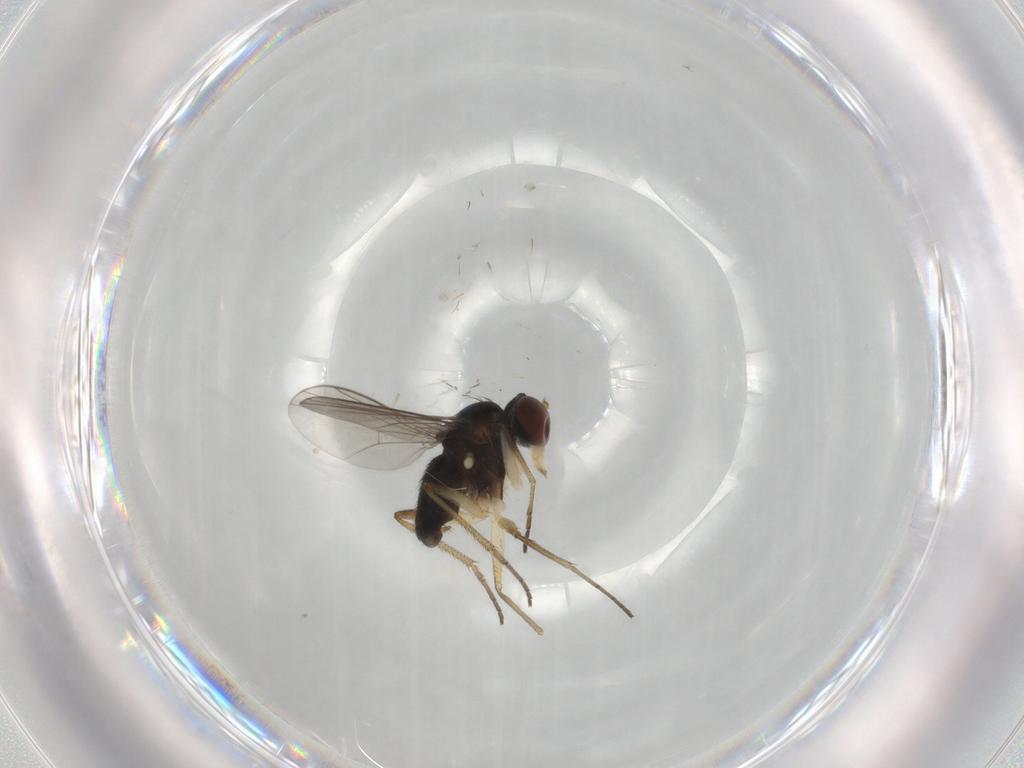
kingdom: Animalia
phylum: Arthropoda
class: Insecta
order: Diptera
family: Dolichopodidae
